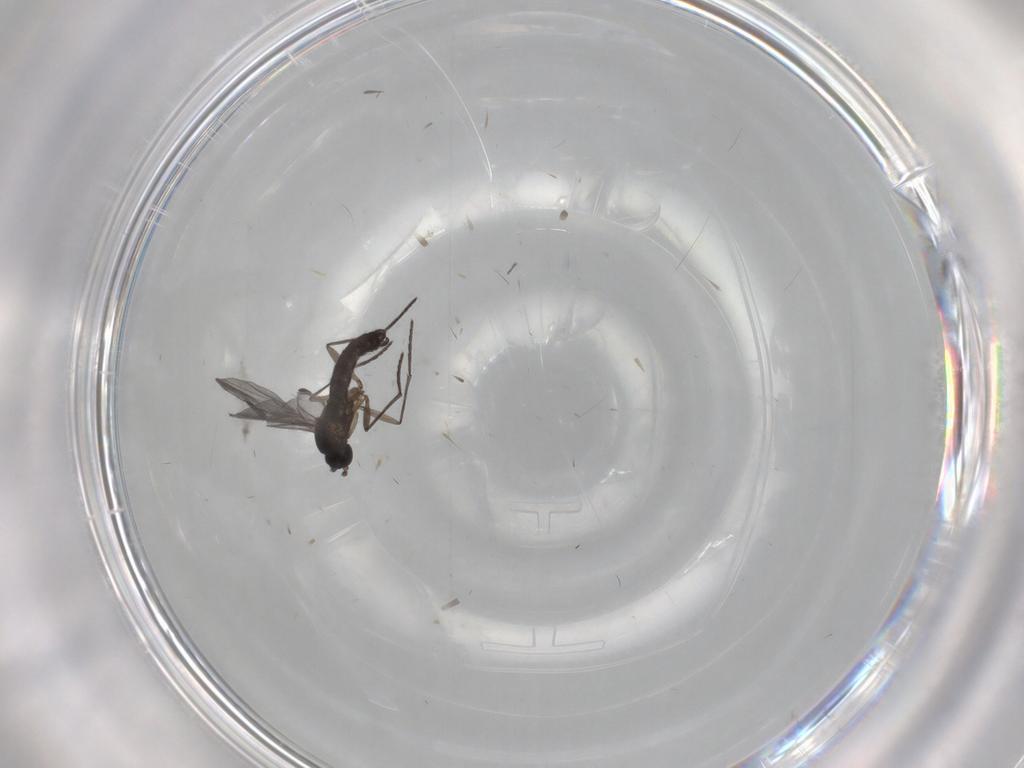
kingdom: Animalia
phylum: Arthropoda
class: Insecta
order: Diptera
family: Sciaridae
